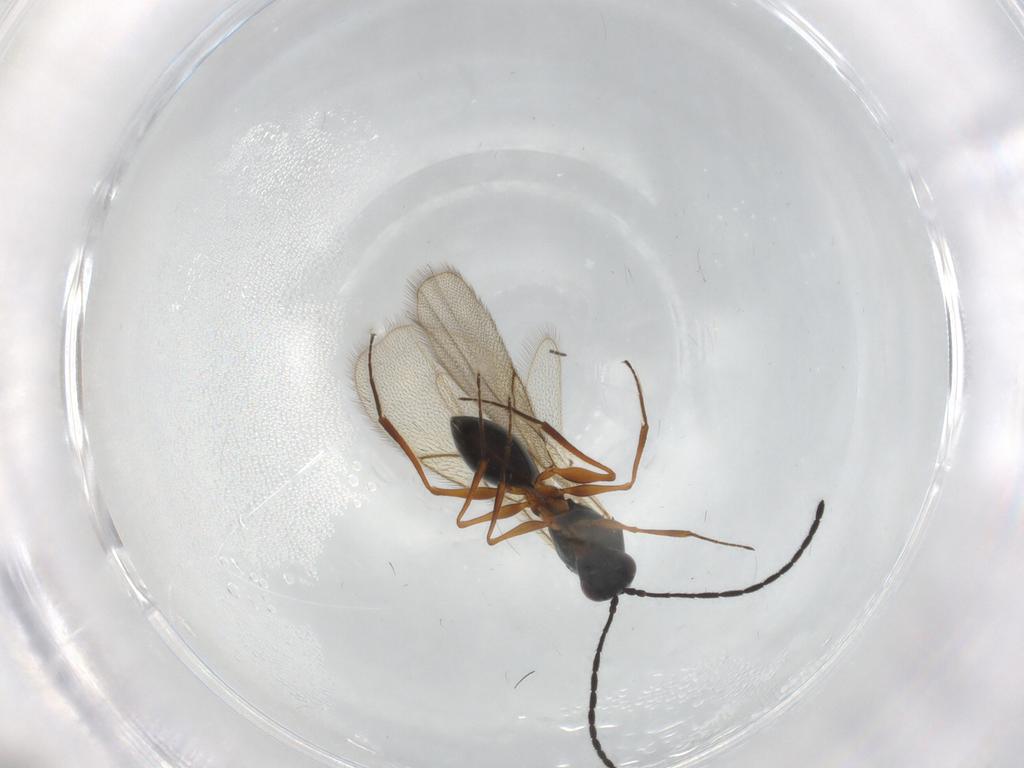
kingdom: Animalia
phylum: Arthropoda
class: Insecta
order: Hymenoptera
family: Figitidae
